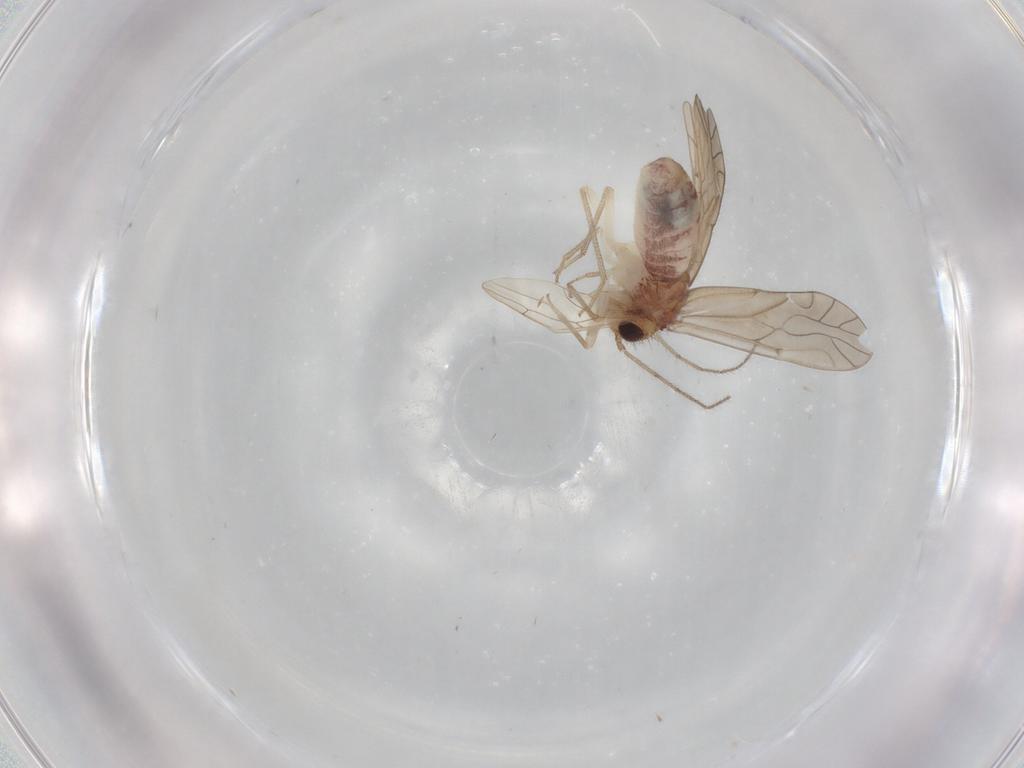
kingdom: Animalia
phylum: Arthropoda
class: Insecta
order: Psocodea
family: Caeciliusidae
